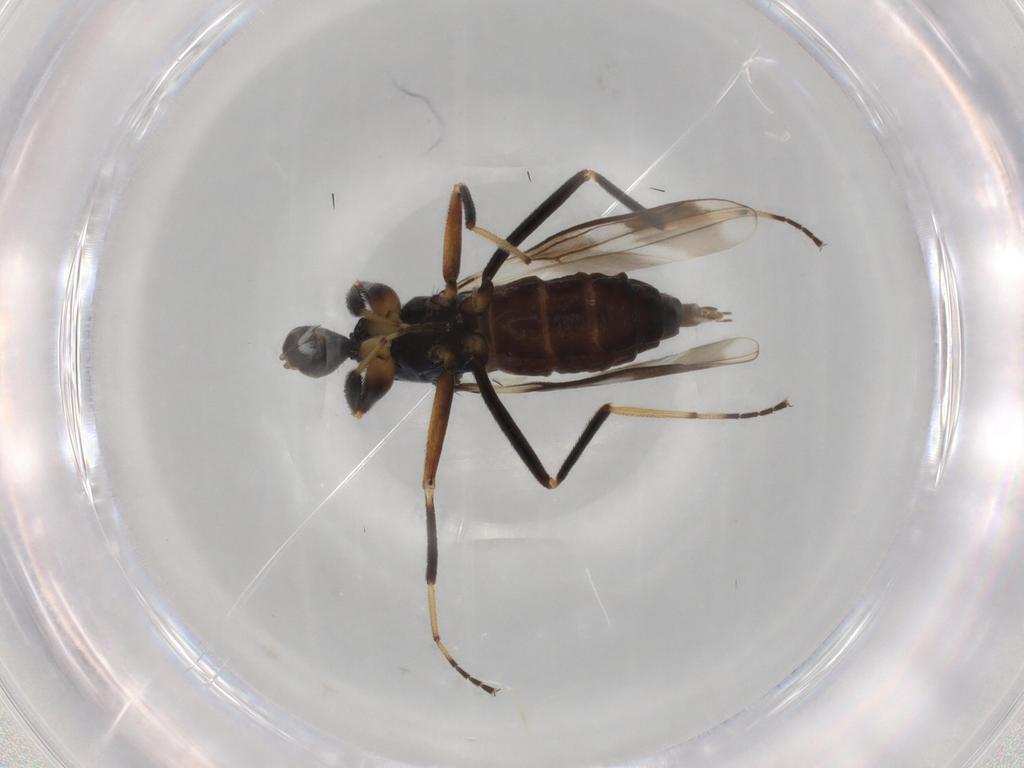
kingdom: Animalia
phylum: Arthropoda
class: Insecta
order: Diptera
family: Hybotidae
